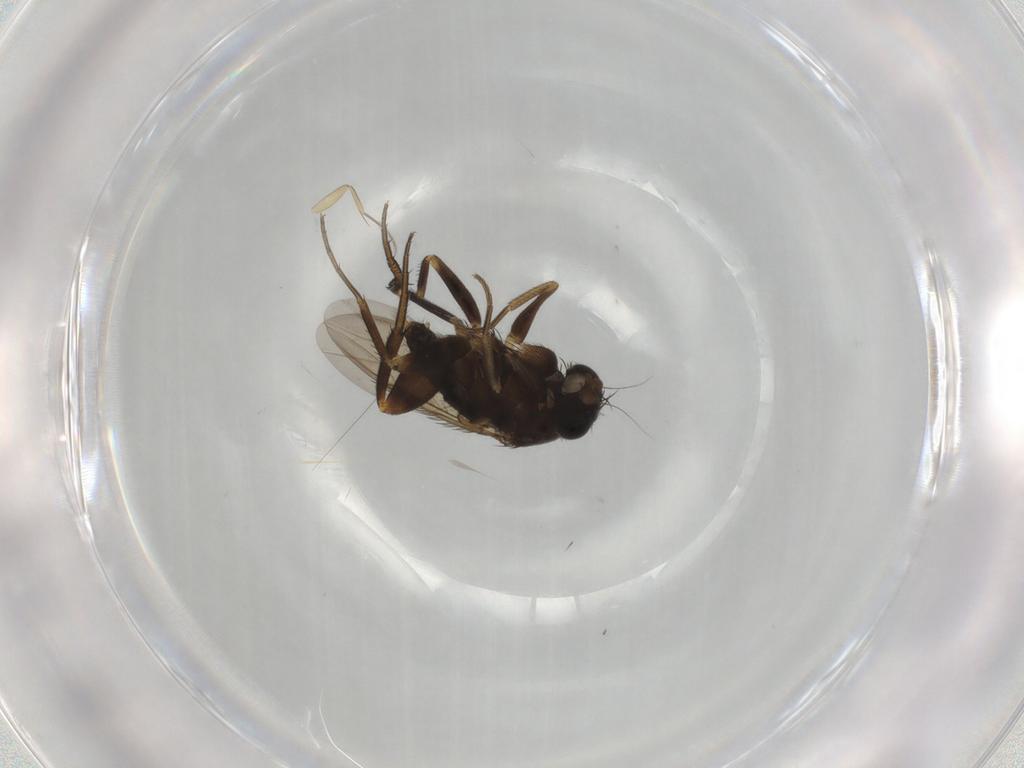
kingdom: Animalia
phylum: Arthropoda
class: Insecta
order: Diptera
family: Phoridae
